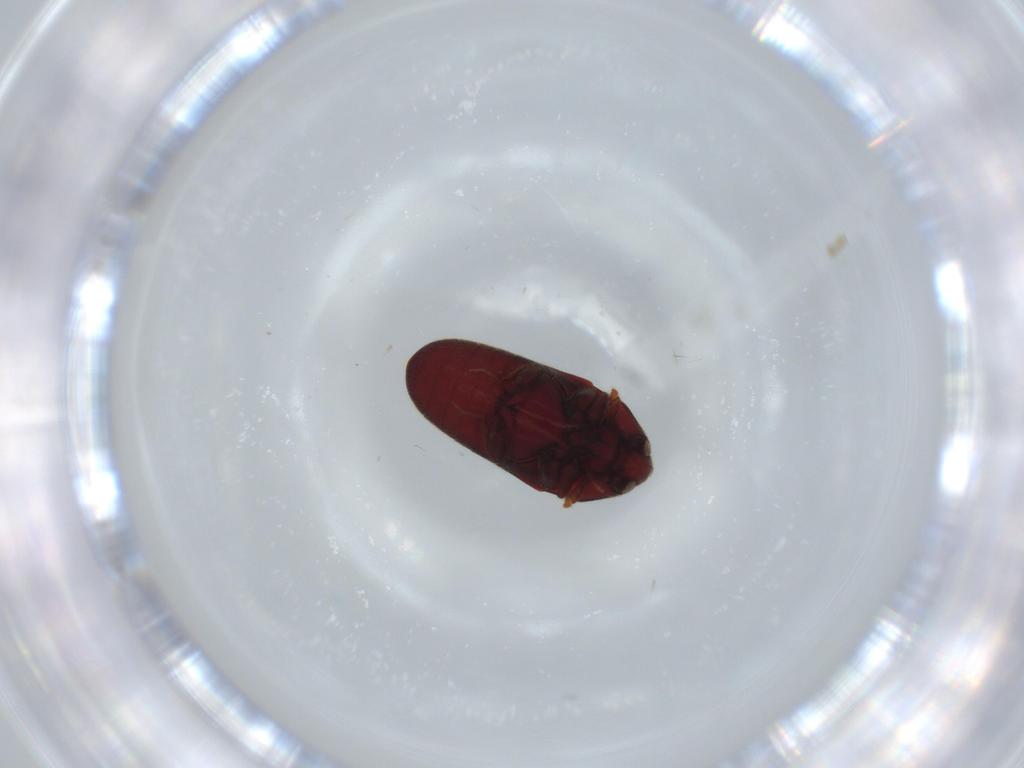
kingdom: Animalia
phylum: Arthropoda
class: Insecta
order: Coleoptera
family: Throscidae
